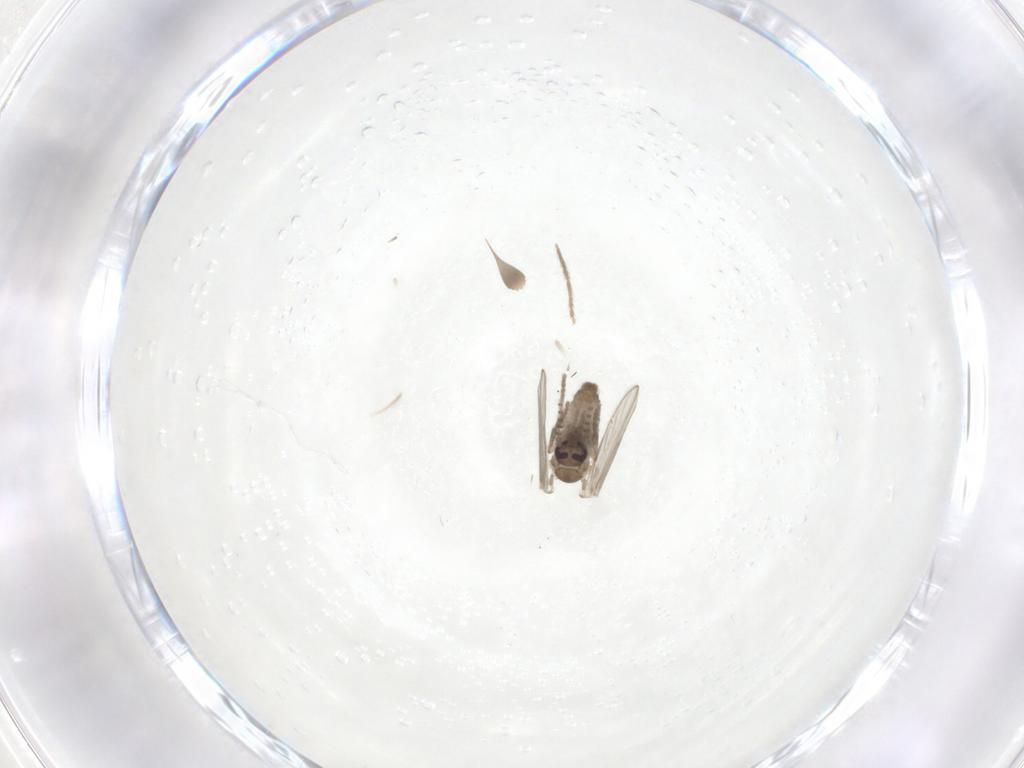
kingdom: Animalia
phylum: Arthropoda
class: Insecta
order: Diptera
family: Psychodidae
